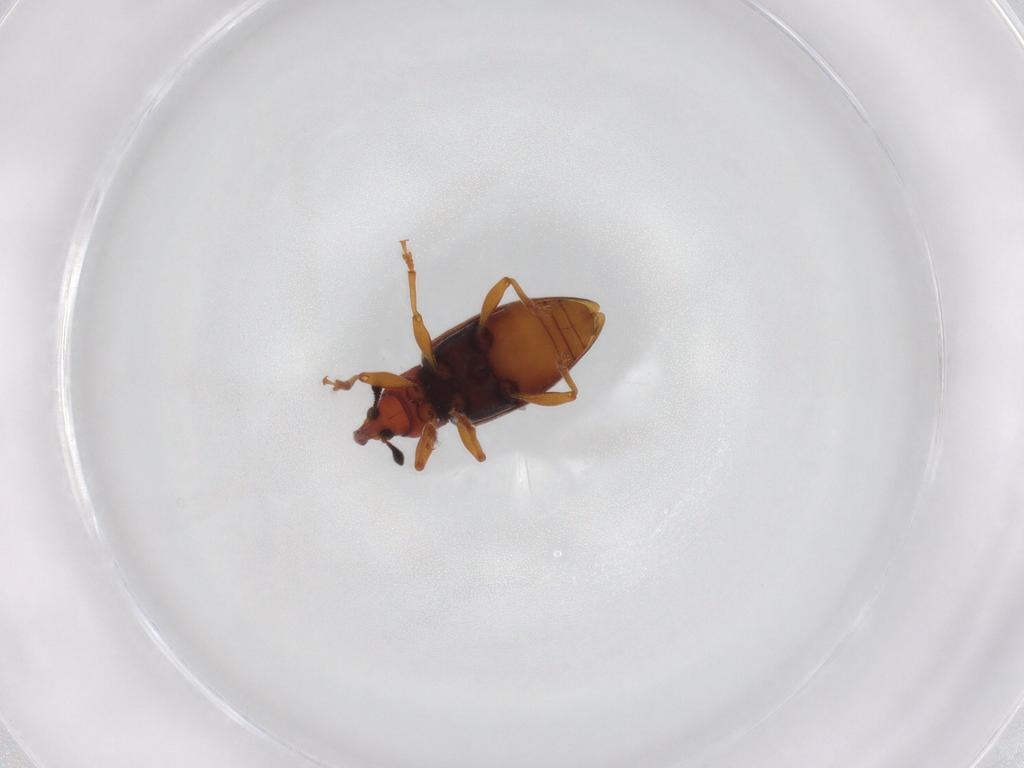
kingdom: Animalia
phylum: Arthropoda
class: Insecta
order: Coleoptera
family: Curculionidae
